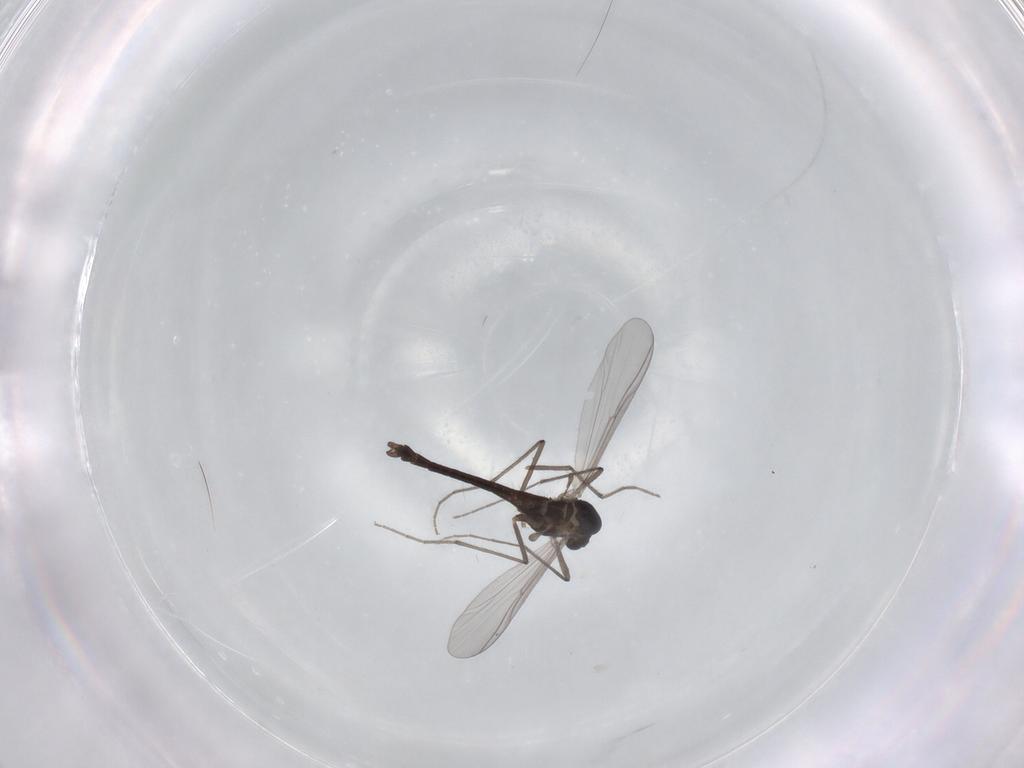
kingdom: Animalia
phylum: Arthropoda
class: Insecta
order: Diptera
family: Chironomidae
